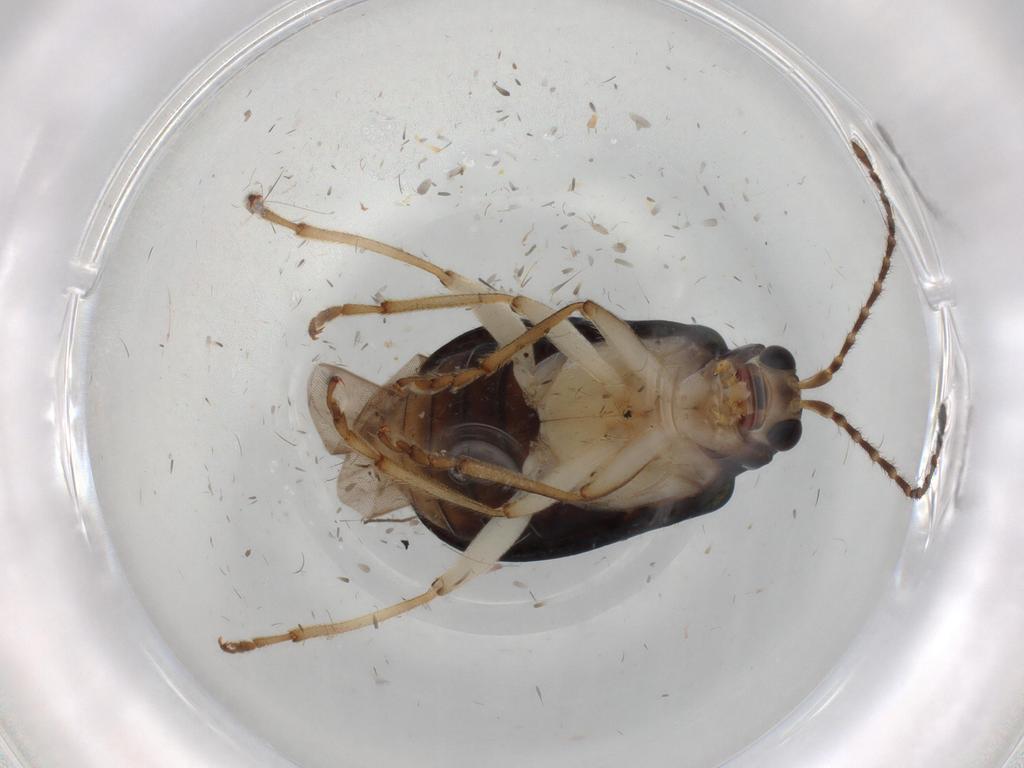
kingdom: Animalia
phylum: Arthropoda
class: Insecta
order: Coleoptera
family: Chrysomelidae
